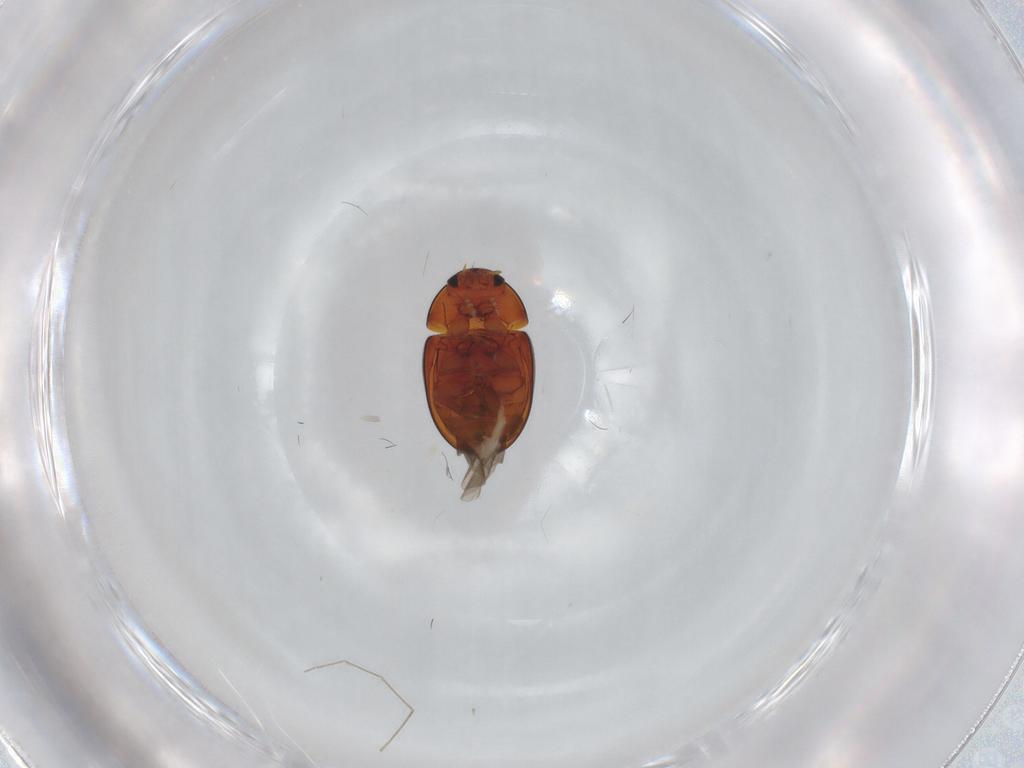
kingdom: Animalia
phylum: Arthropoda
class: Insecta
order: Coleoptera
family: Phalacridae
